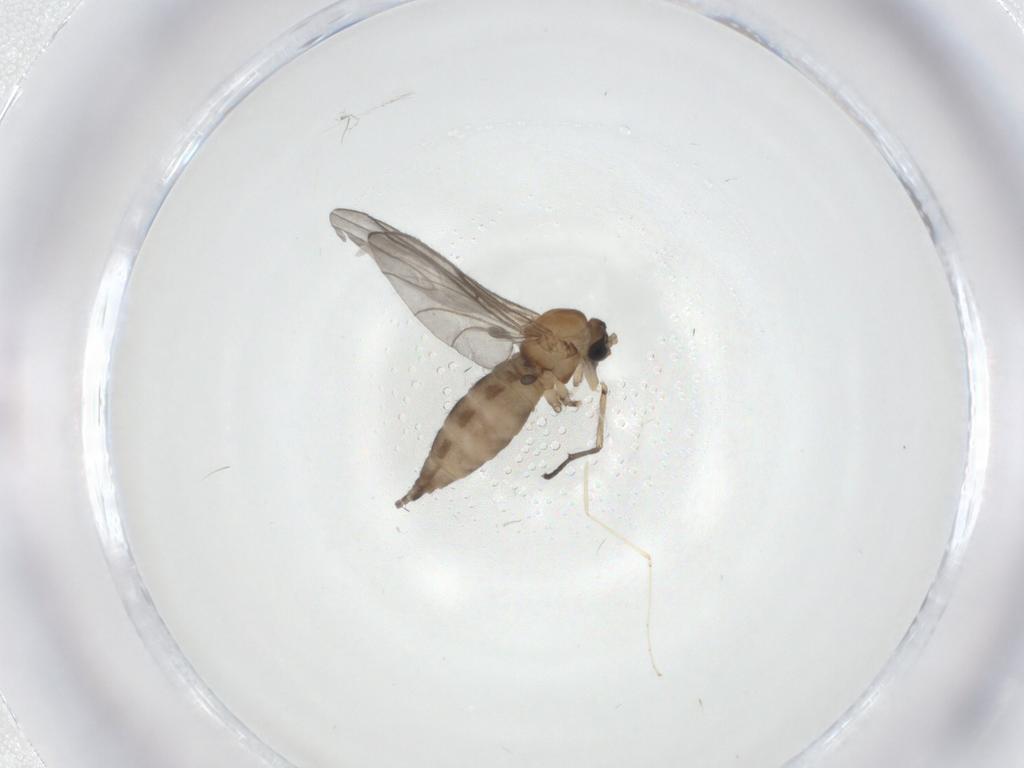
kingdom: Animalia
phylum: Arthropoda
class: Insecta
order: Diptera
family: Sciaridae
